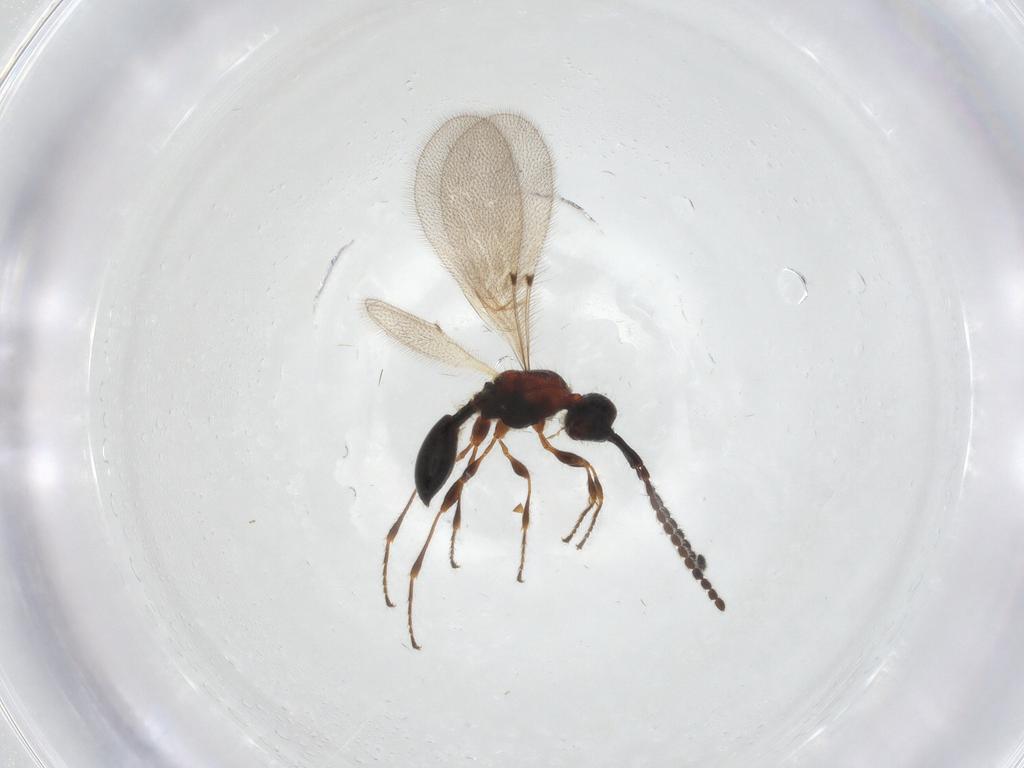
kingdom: Animalia
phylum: Arthropoda
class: Insecta
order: Hymenoptera
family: Diapriidae
